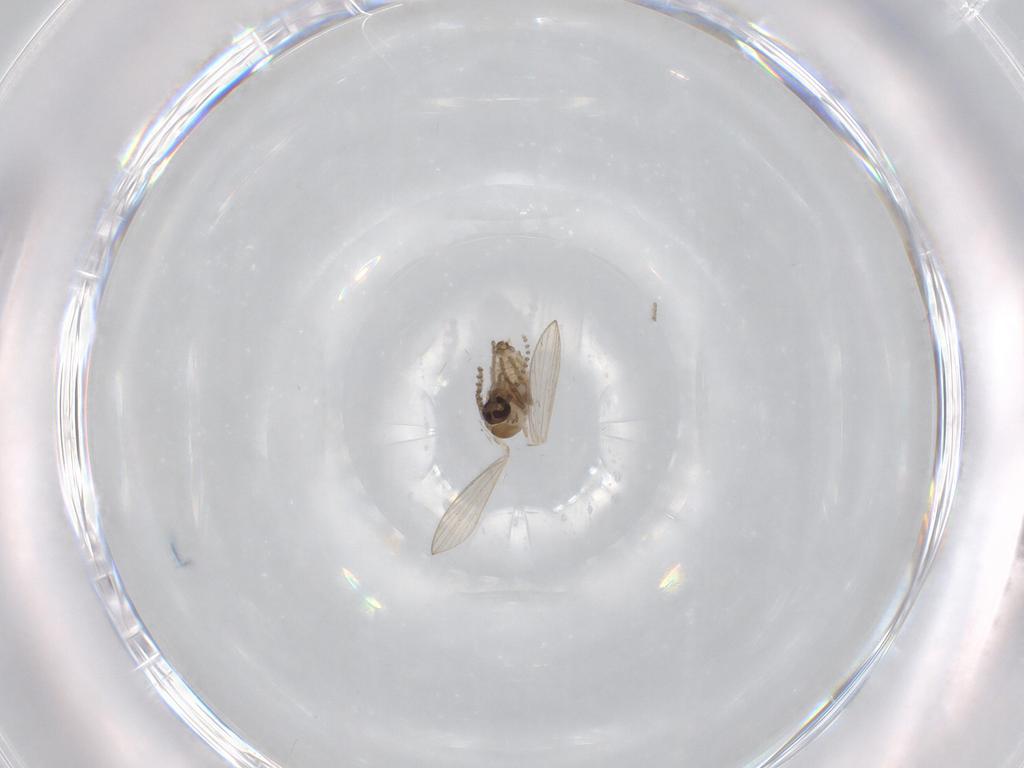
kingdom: Animalia
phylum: Arthropoda
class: Insecta
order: Diptera
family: Psychodidae
